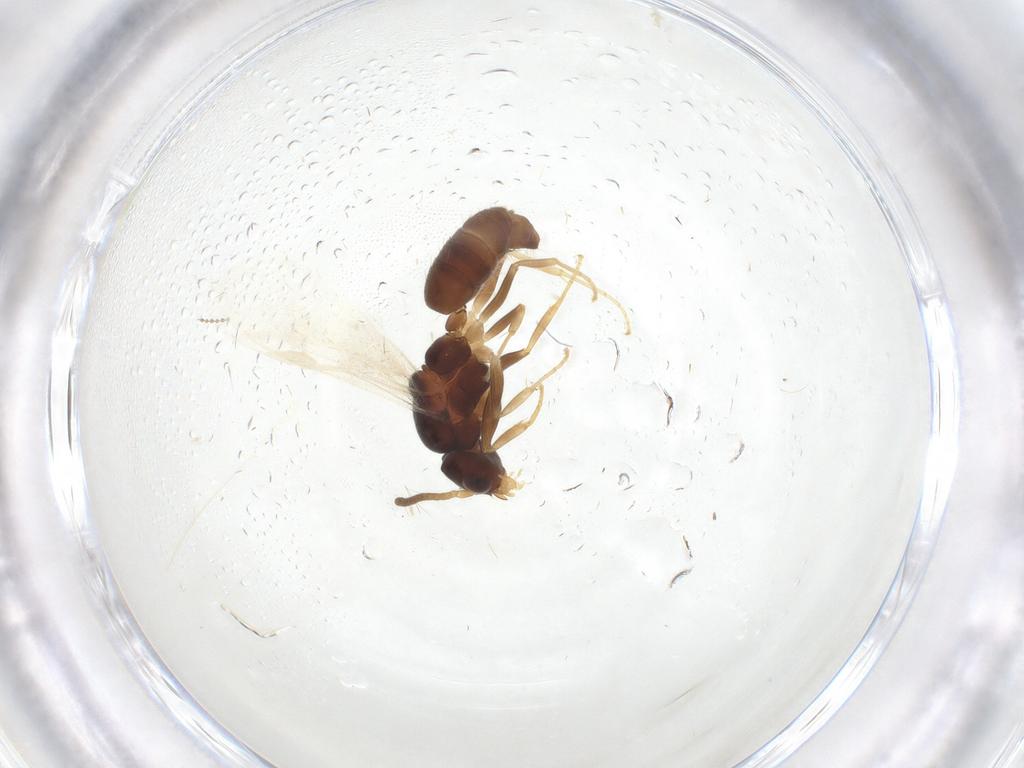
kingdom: Animalia
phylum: Arthropoda
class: Insecta
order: Hymenoptera
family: Formicidae
